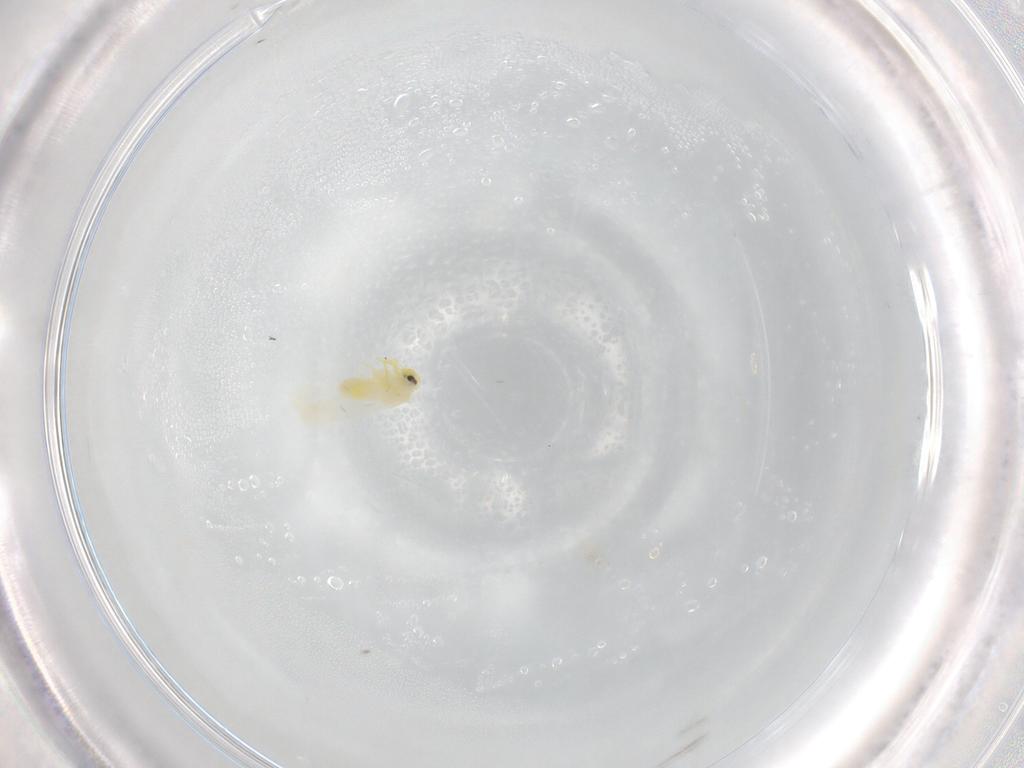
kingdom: Animalia
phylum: Arthropoda
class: Insecta
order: Hemiptera
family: Aleyrodidae
